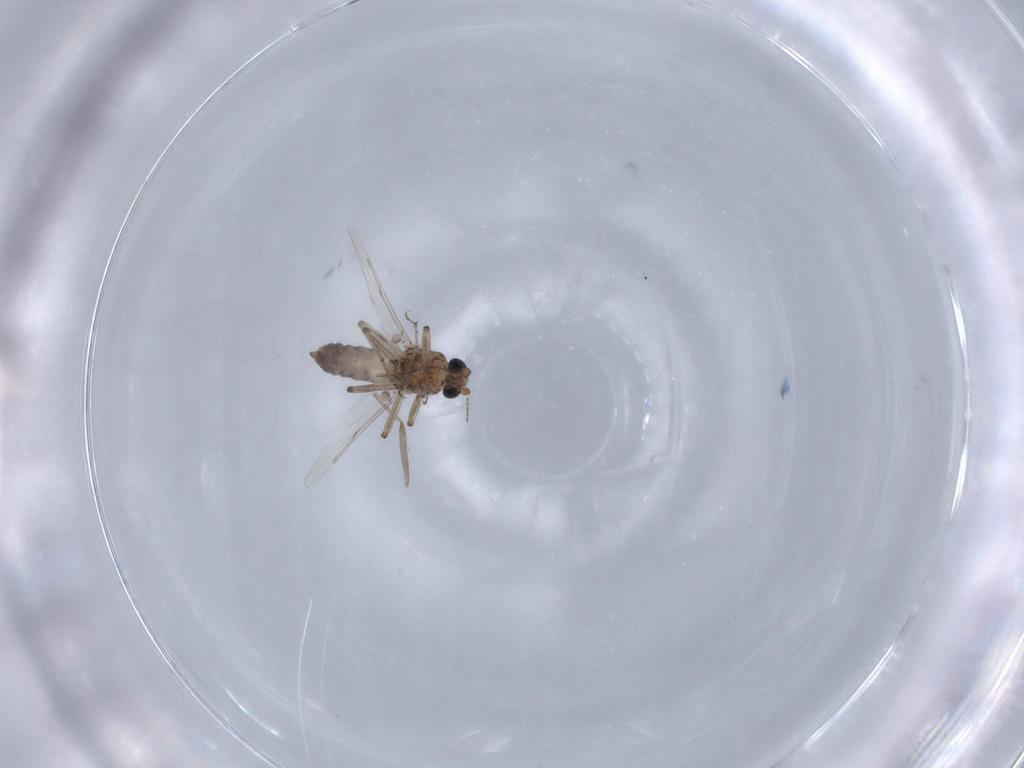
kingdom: Animalia
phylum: Arthropoda
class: Insecta
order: Diptera
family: Ceratopogonidae
